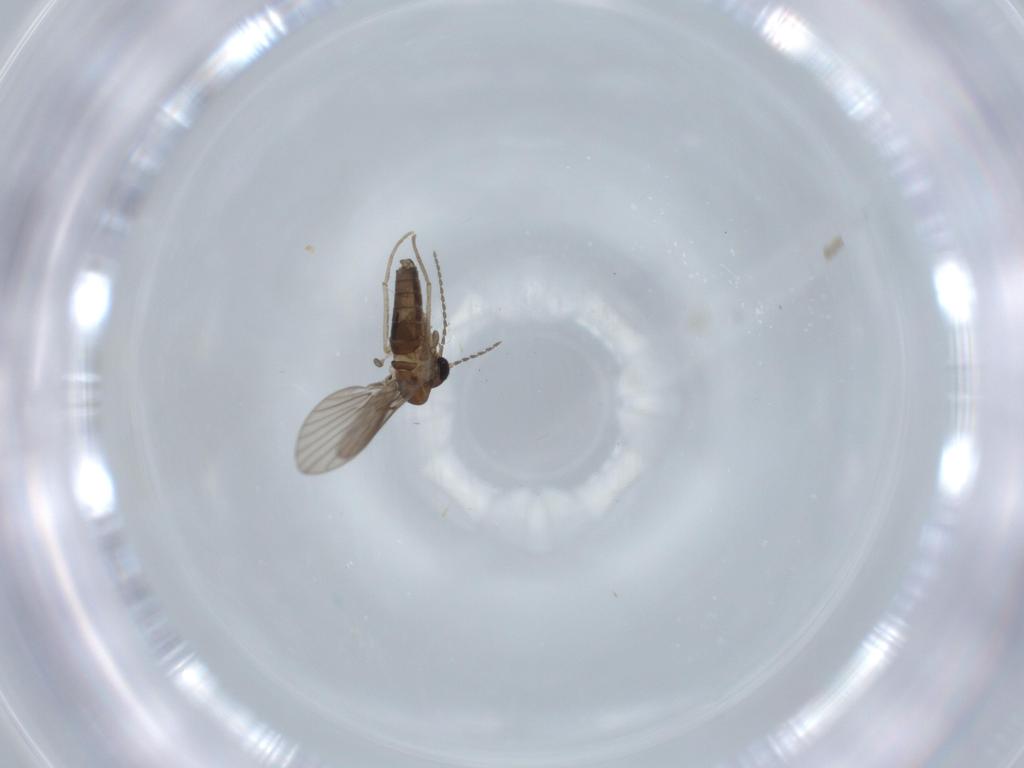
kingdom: Animalia
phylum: Arthropoda
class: Insecta
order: Diptera
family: Psychodidae
